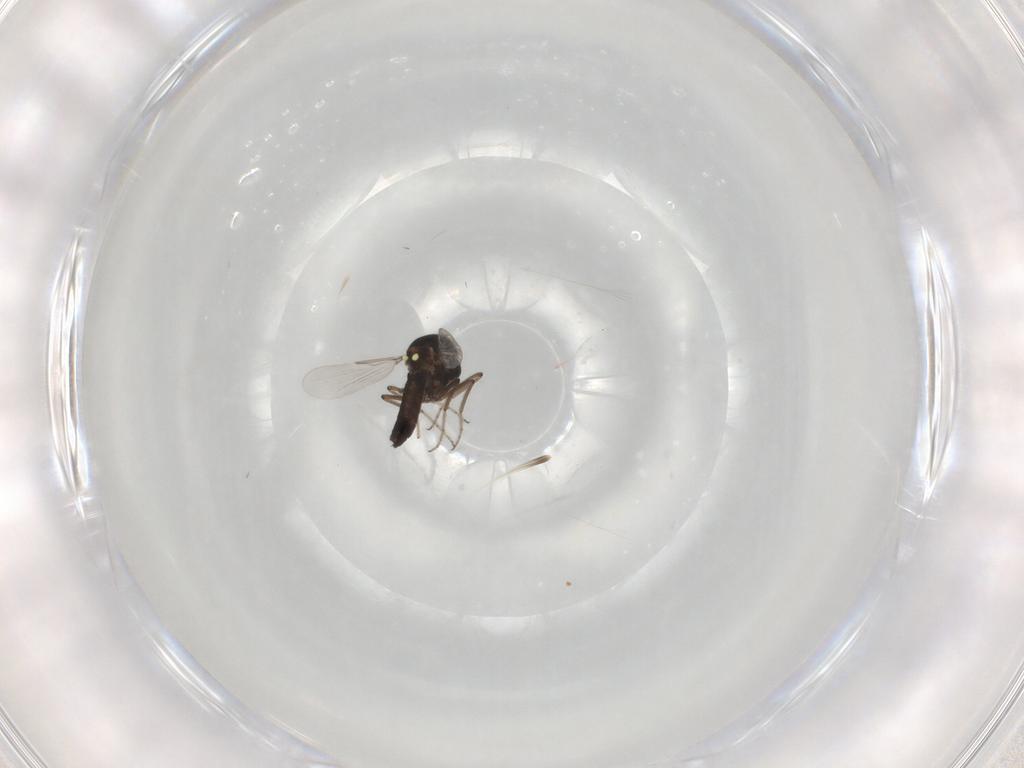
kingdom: Animalia
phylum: Arthropoda
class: Insecta
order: Diptera
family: Ceratopogonidae
